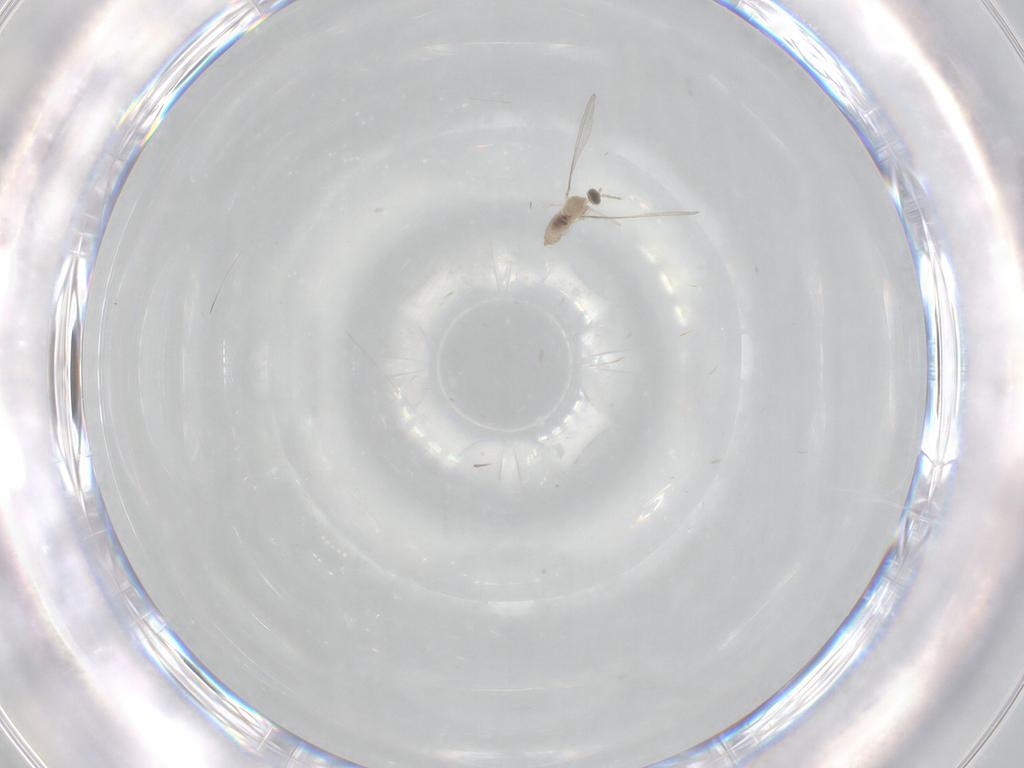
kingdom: Animalia
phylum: Arthropoda
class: Insecta
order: Diptera
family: Cecidomyiidae
